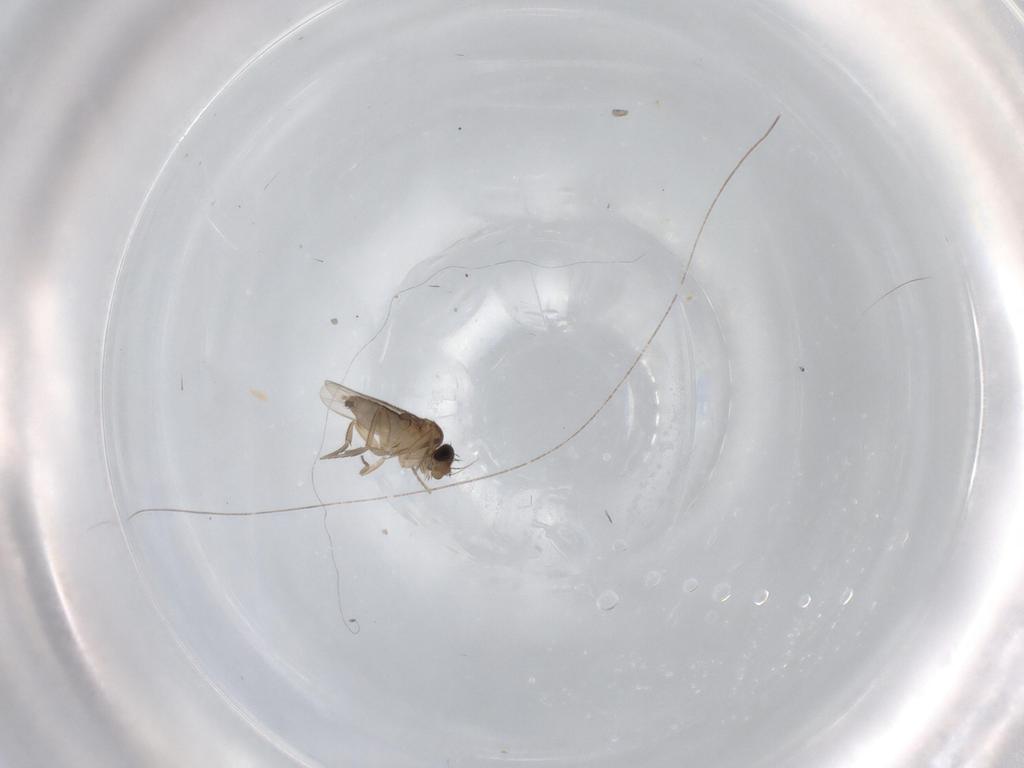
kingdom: Animalia
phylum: Arthropoda
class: Insecta
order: Diptera
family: Phoridae
